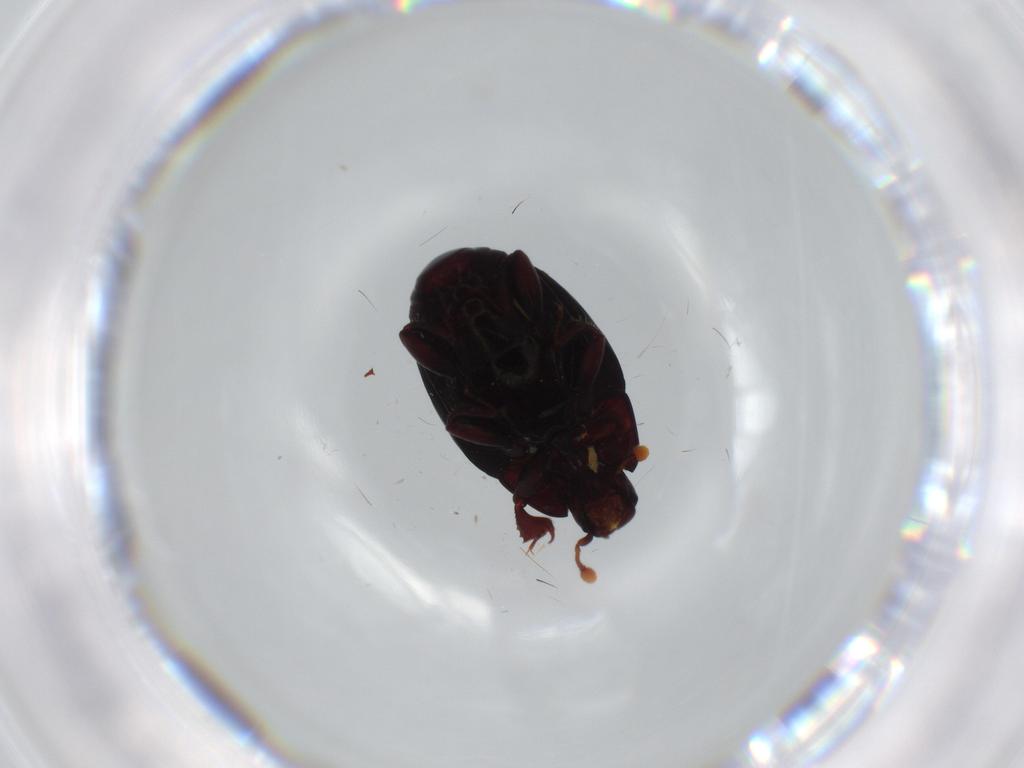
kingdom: Animalia
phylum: Arthropoda
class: Insecta
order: Coleoptera
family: Histeridae
